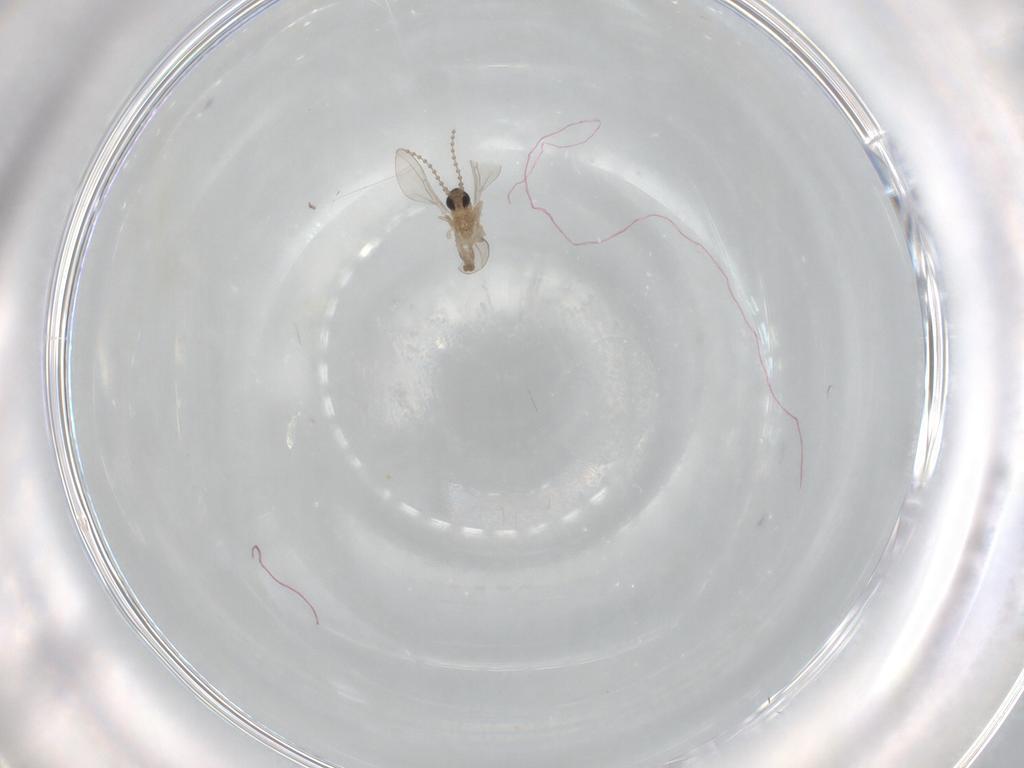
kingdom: Animalia
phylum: Arthropoda
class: Insecta
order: Diptera
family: Cecidomyiidae
